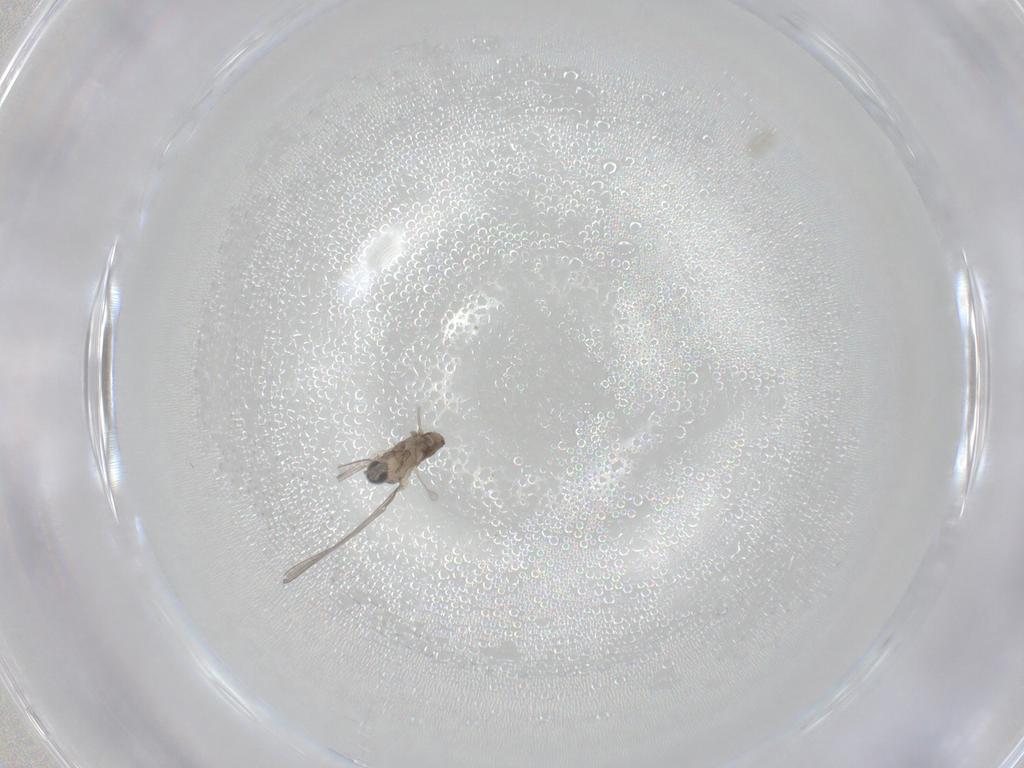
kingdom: Animalia
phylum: Arthropoda
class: Insecta
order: Diptera
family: Cecidomyiidae
